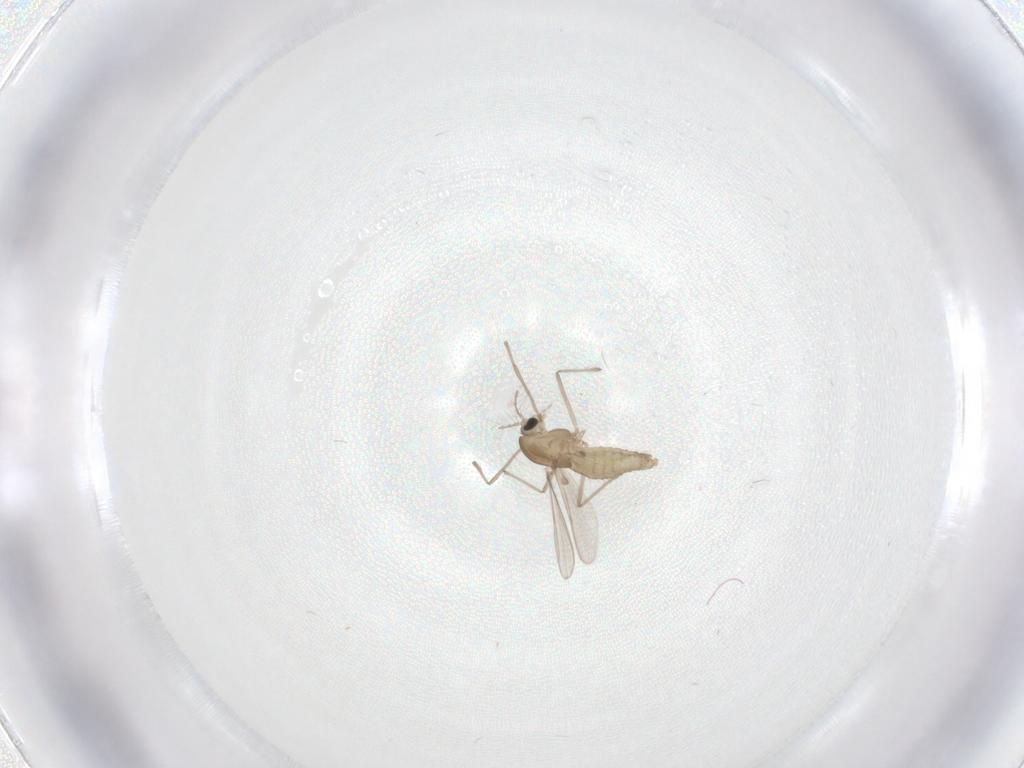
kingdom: Animalia
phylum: Arthropoda
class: Insecta
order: Diptera
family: Chironomidae
